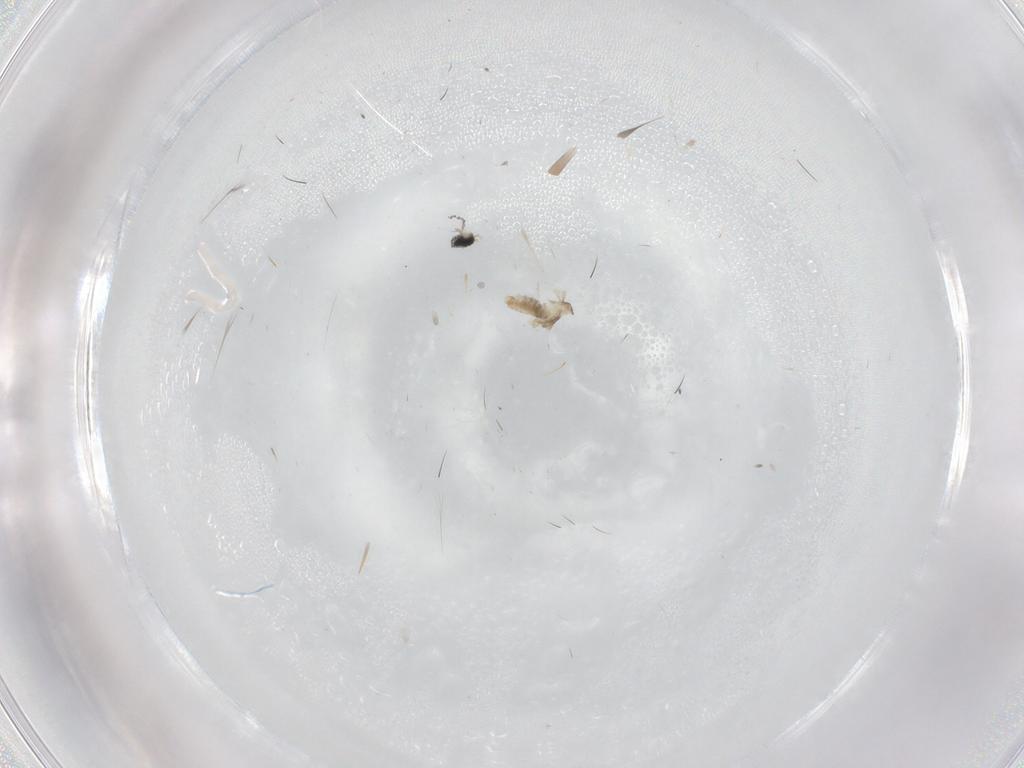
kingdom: Animalia
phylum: Arthropoda
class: Insecta
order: Diptera
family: Cecidomyiidae
